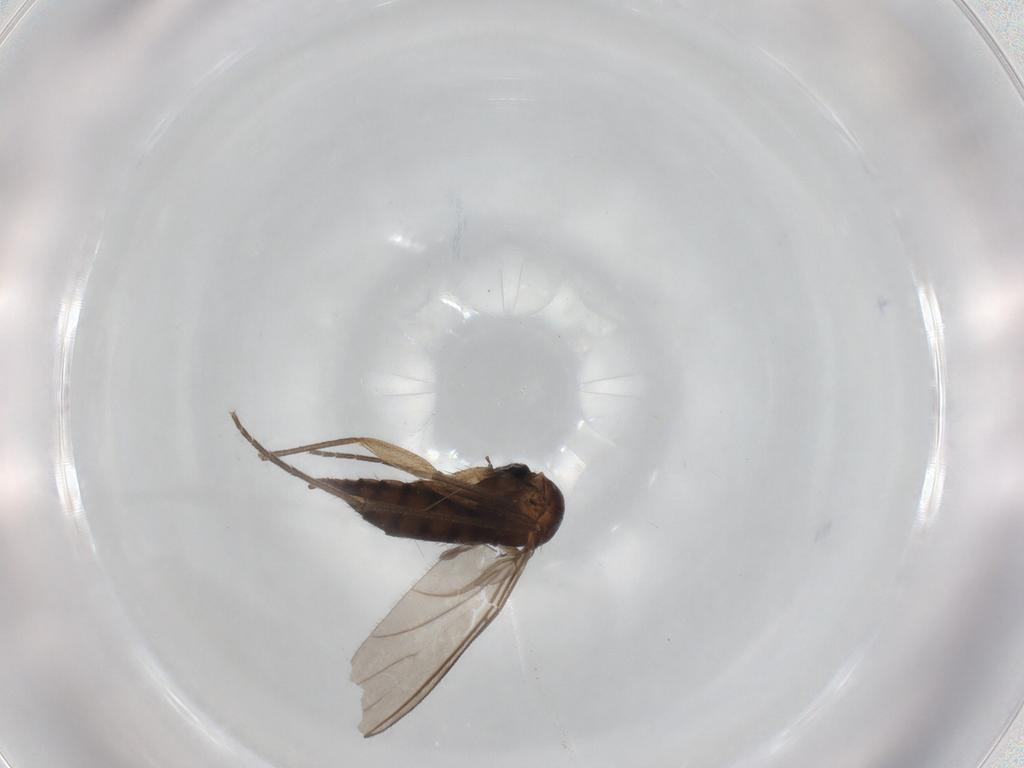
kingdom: Animalia
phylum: Arthropoda
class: Insecta
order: Diptera
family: Sciaridae
